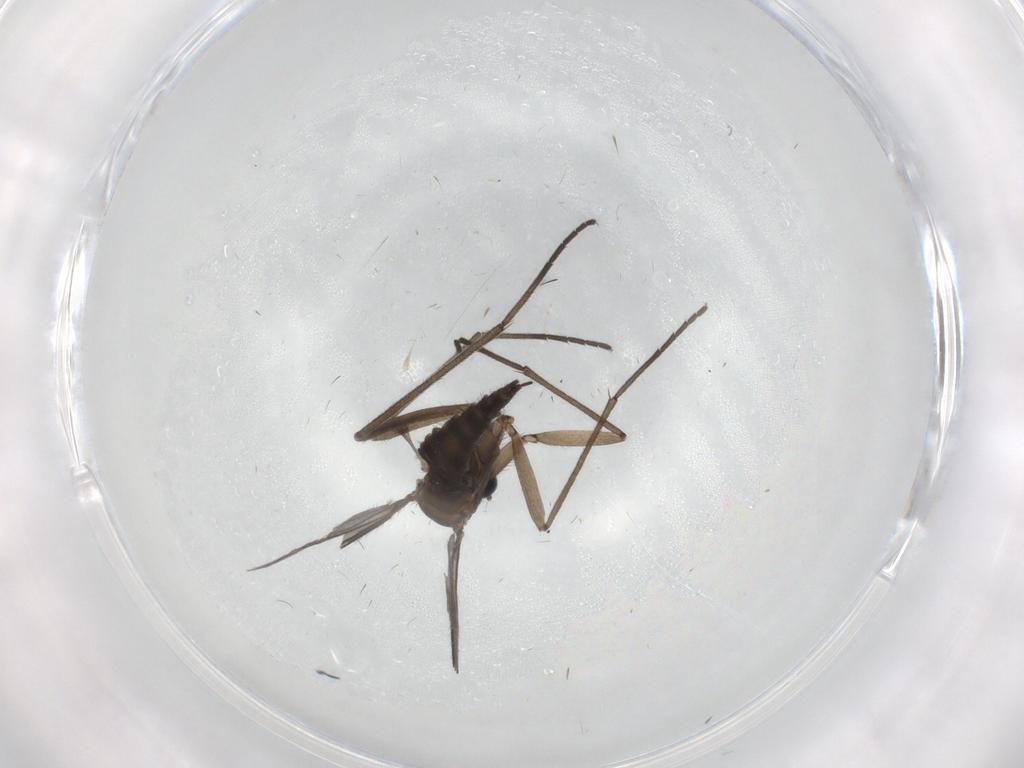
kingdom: Animalia
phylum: Arthropoda
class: Insecta
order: Diptera
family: Sciaridae
